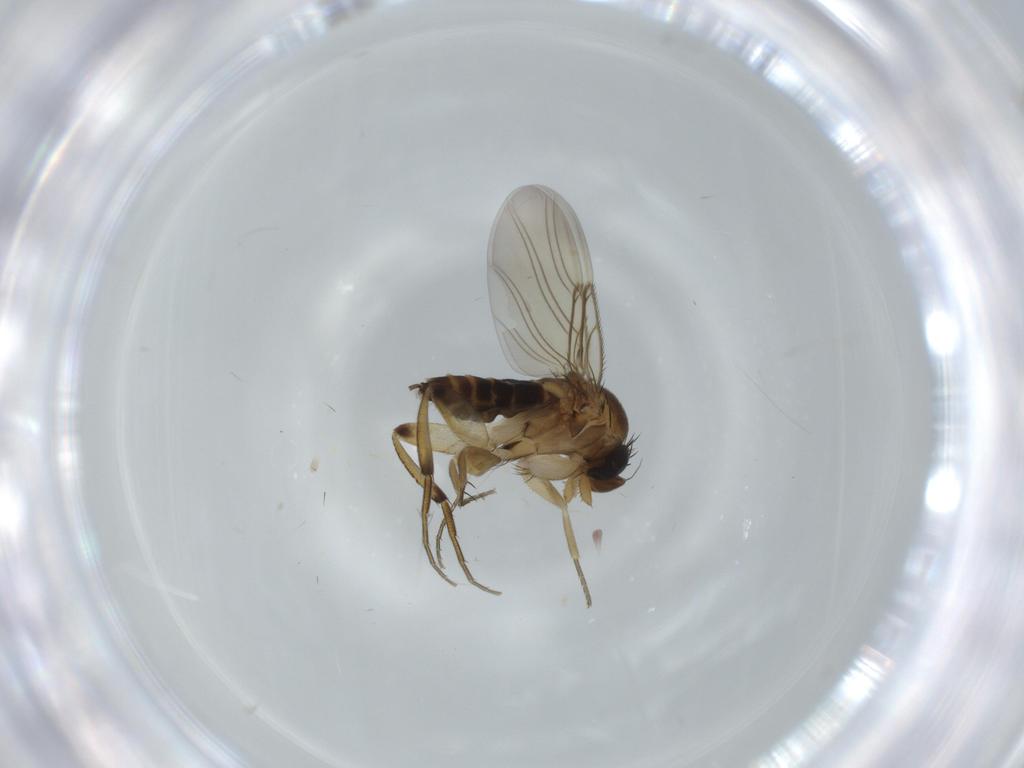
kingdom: Animalia
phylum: Arthropoda
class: Insecta
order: Diptera
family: Phoridae
